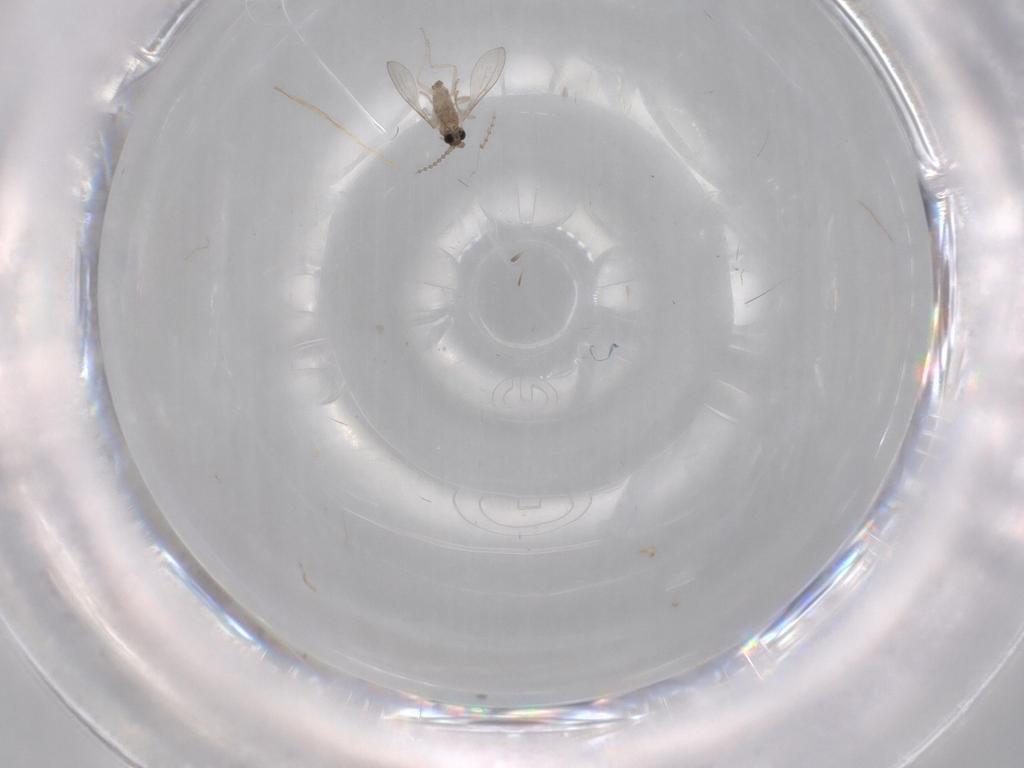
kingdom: Animalia
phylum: Arthropoda
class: Insecta
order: Diptera
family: Cecidomyiidae
